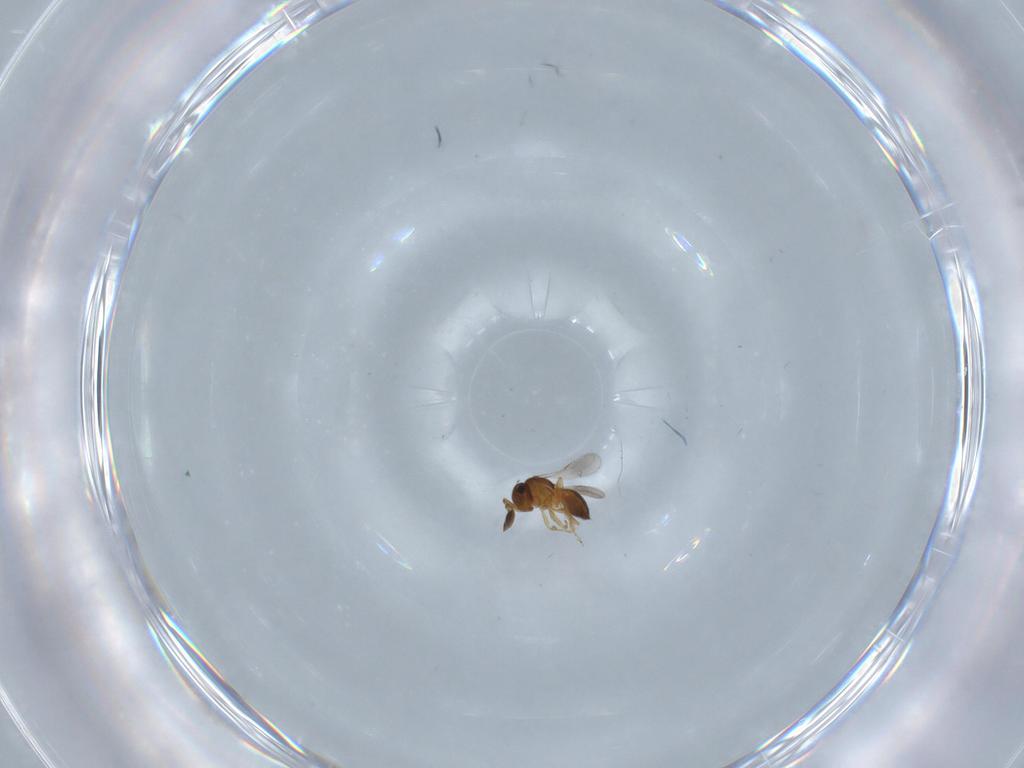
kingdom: Animalia
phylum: Arthropoda
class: Insecta
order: Hymenoptera
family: Scelionidae
